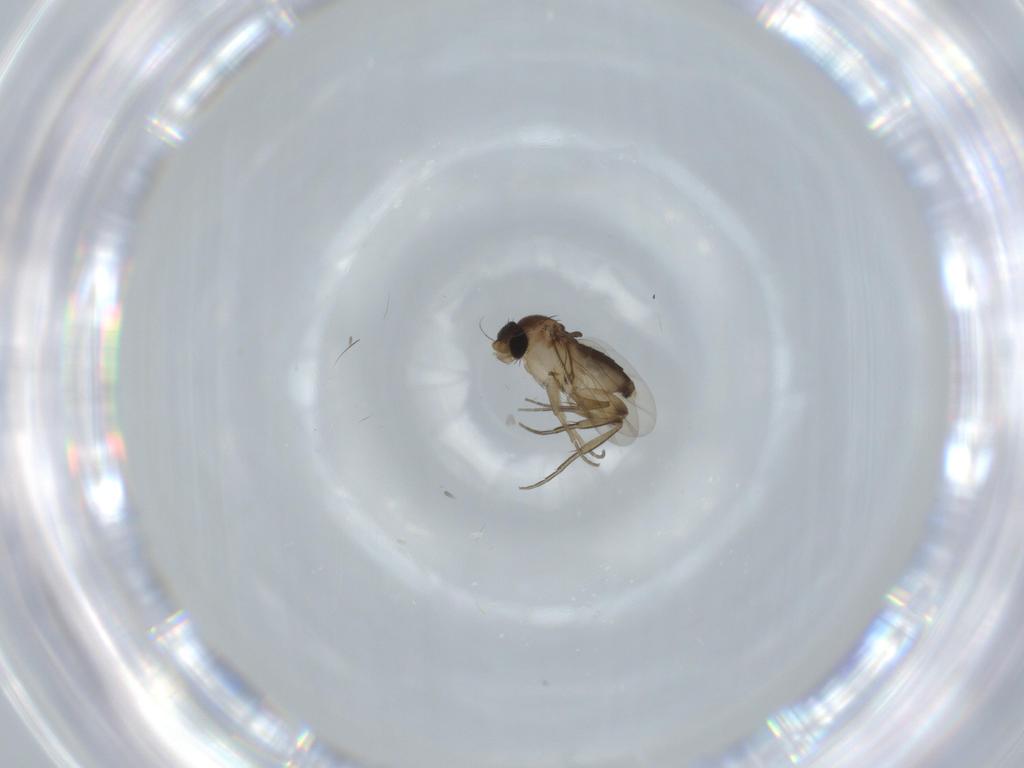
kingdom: Animalia
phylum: Arthropoda
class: Insecta
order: Diptera
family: Phoridae
